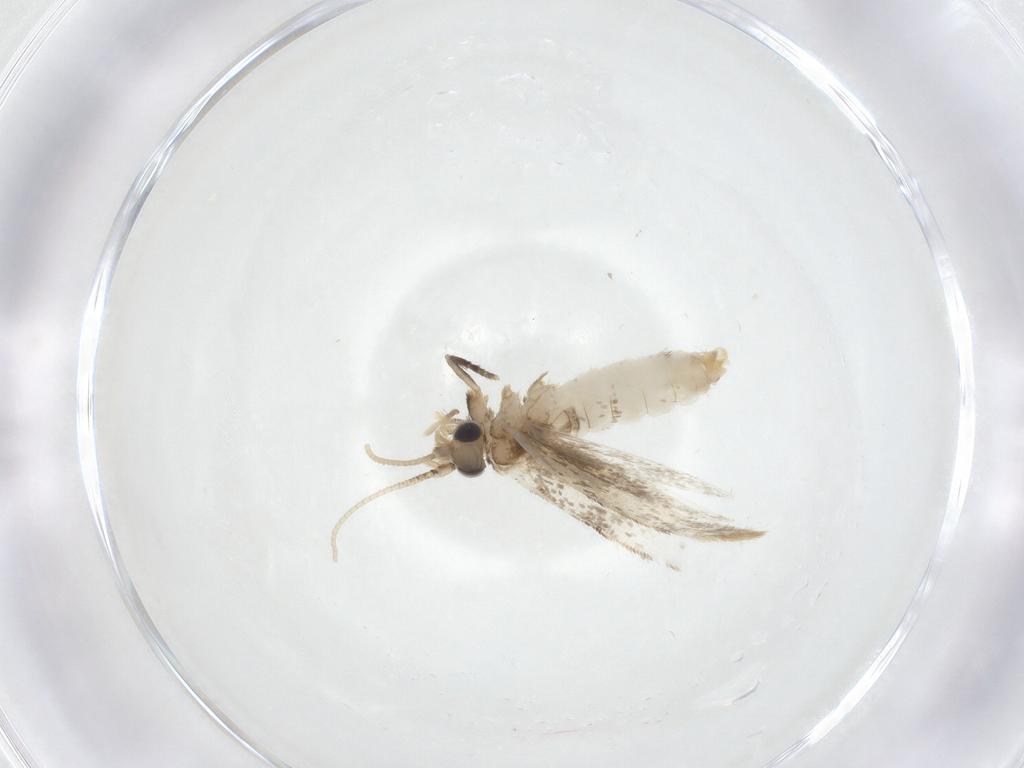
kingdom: Animalia
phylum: Arthropoda
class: Insecta
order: Lepidoptera
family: Dryadaulidae
